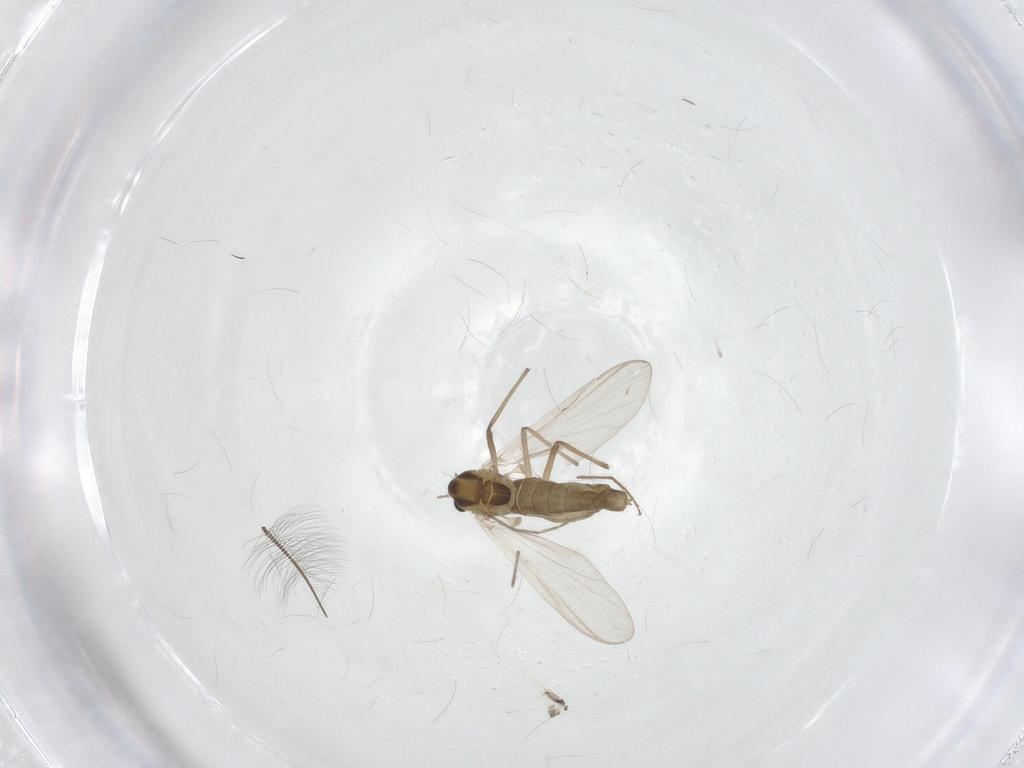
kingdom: Animalia
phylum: Arthropoda
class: Insecta
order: Diptera
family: Chironomidae
